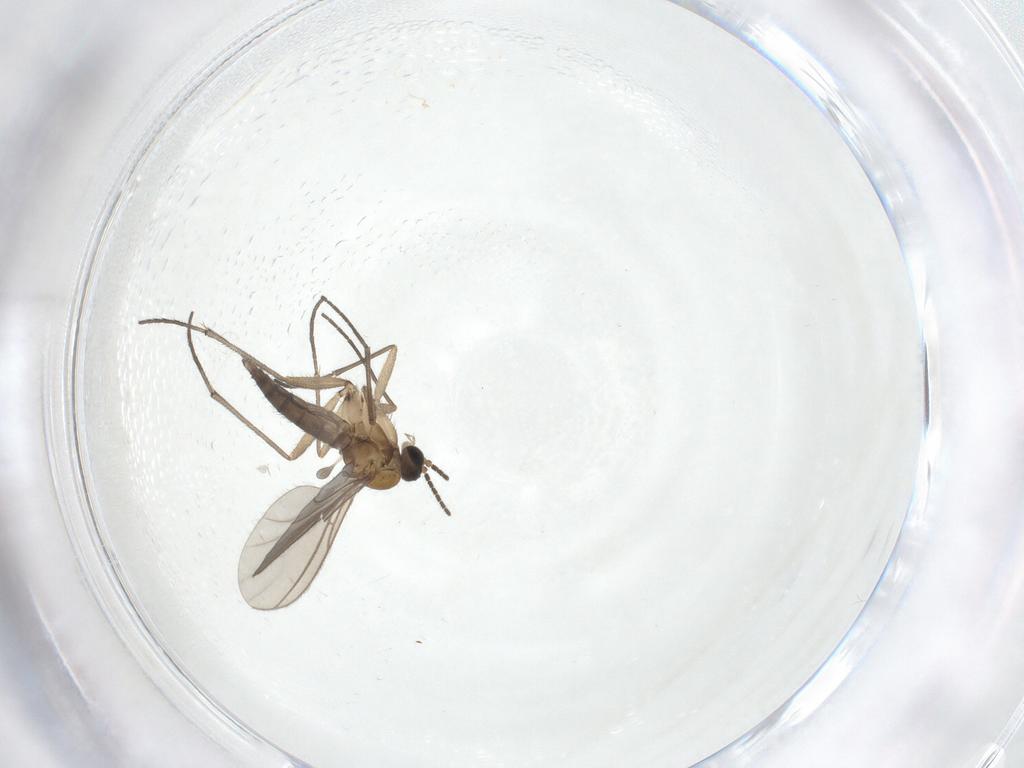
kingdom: Animalia
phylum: Arthropoda
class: Insecta
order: Diptera
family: Sciaridae
